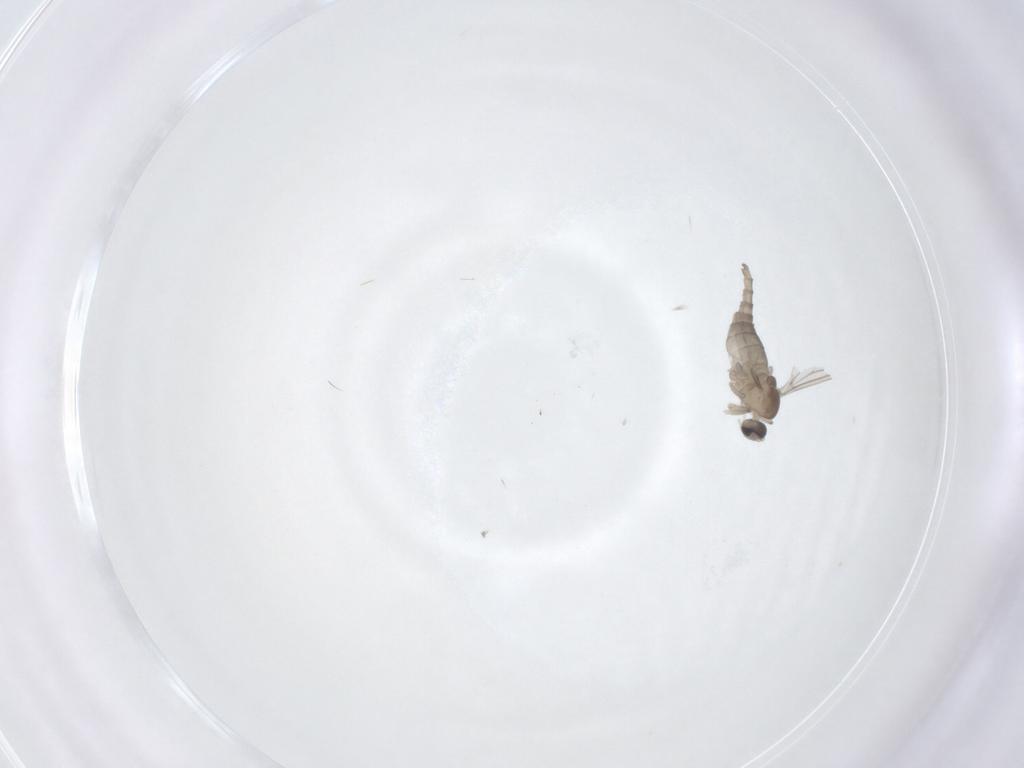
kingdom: Animalia
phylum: Arthropoda
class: Insecta
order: Diptera
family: Cecidomyiidae
